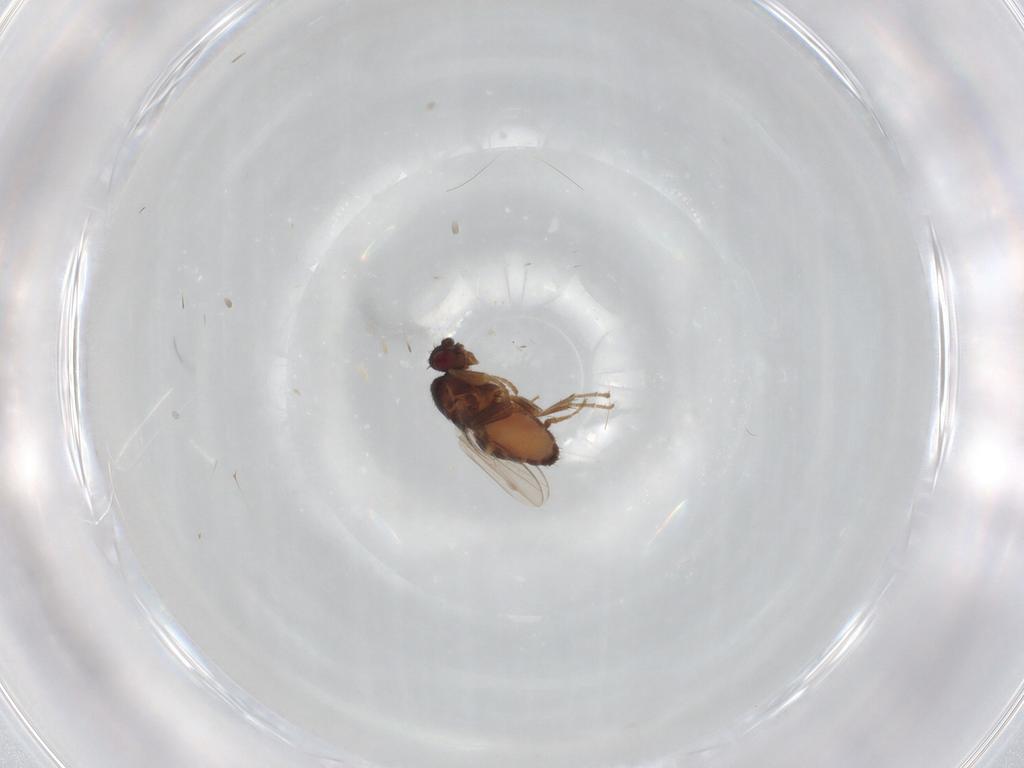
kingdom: Animalia
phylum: Arthropoda
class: Insecta
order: Diptera
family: Sphaeroceridae
